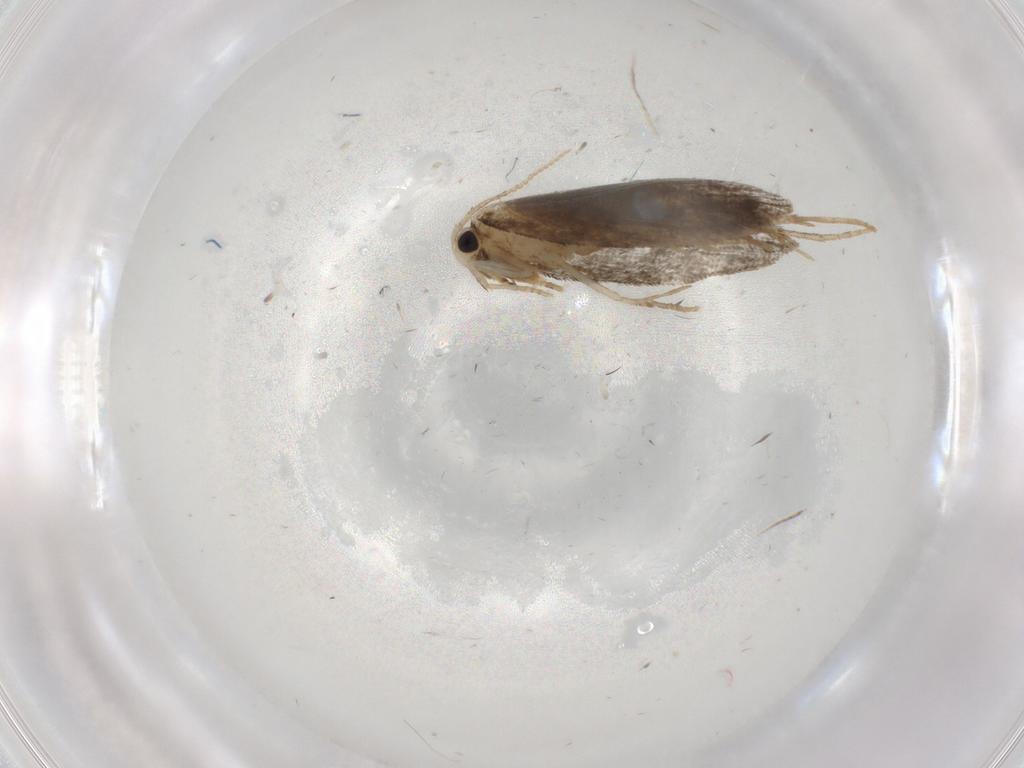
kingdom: Animalia
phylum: Arthropoda
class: Insecta
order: Lepidoptera
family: Psychidae
